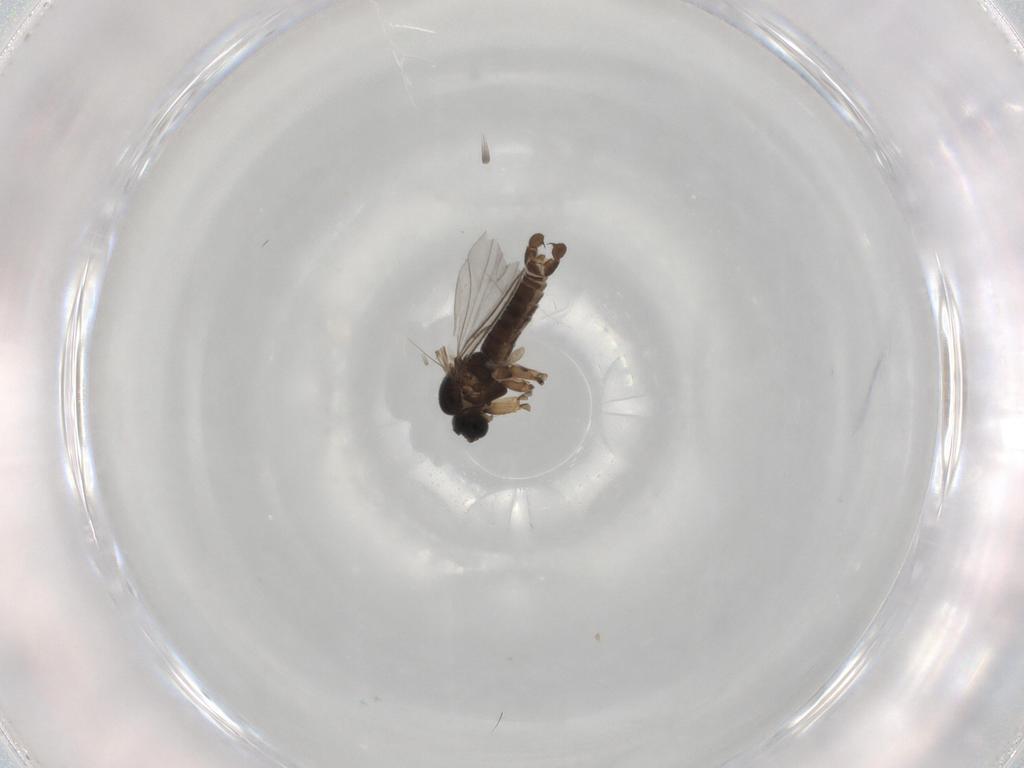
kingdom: Animalia
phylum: Arthropoda
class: Insecta
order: Diptera
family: Sciaridae
